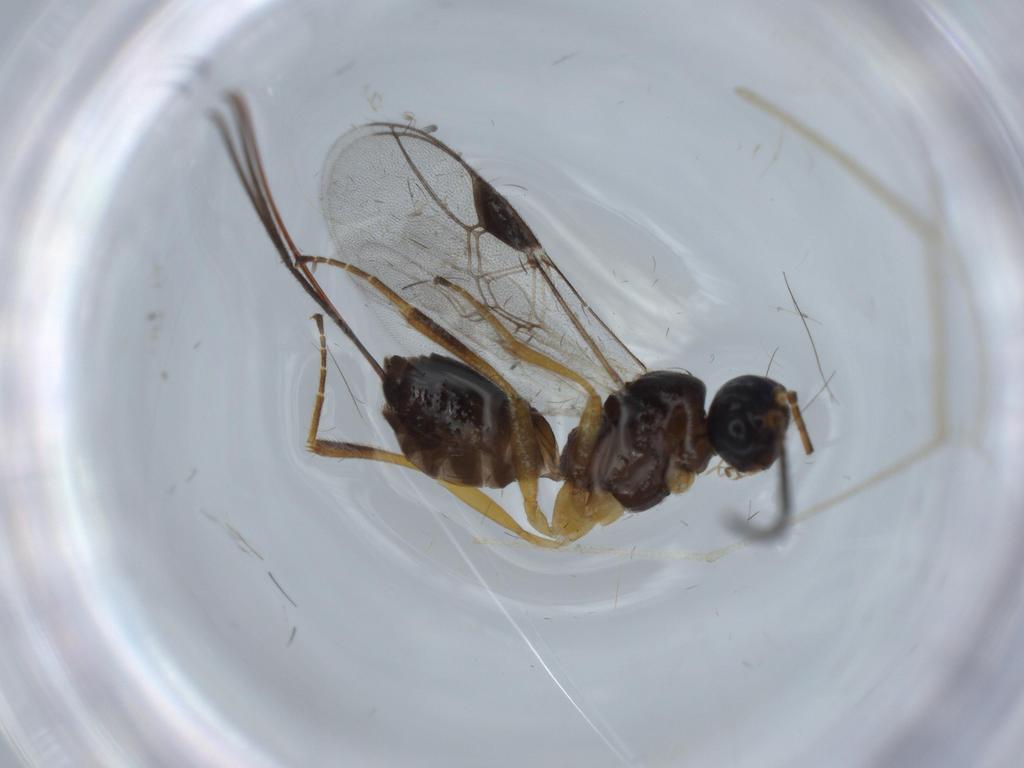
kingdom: Animalia
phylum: Arthropoda
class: Insecta
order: Hymenoptera
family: Braconidae
